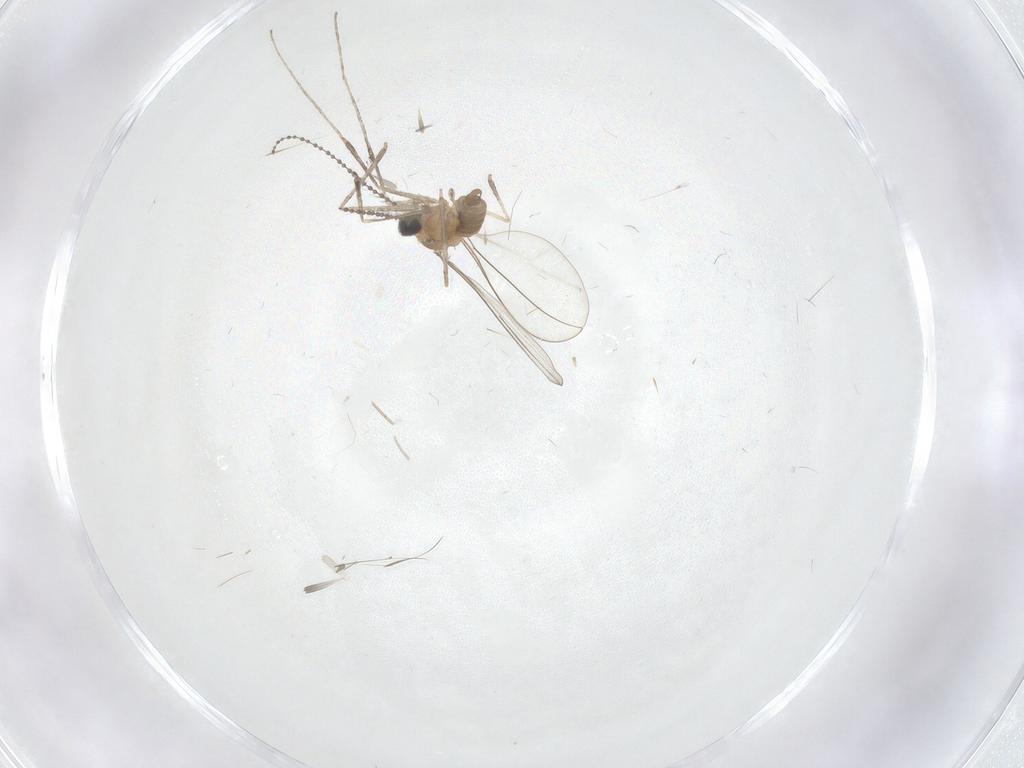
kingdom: Animalia
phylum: Arthropoda
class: Insecta
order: Diptera
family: Cecidomyiidae
